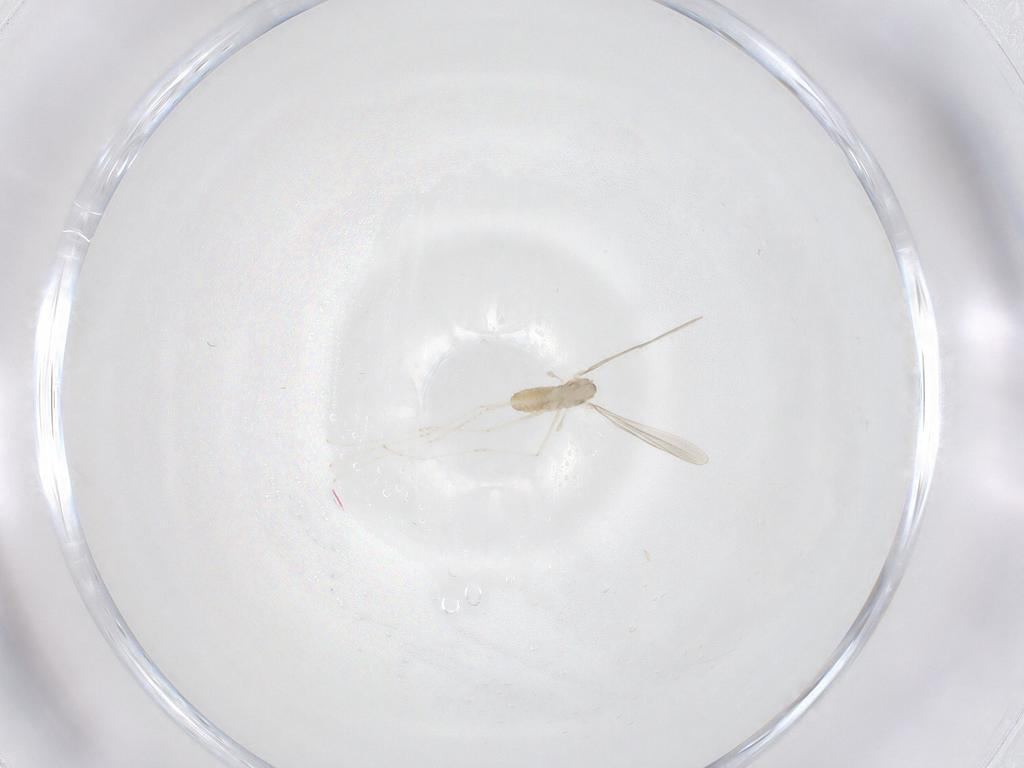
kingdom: Animalia
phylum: Arthropoda
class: Insecta
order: Diptera
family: Cecidomyiidae
